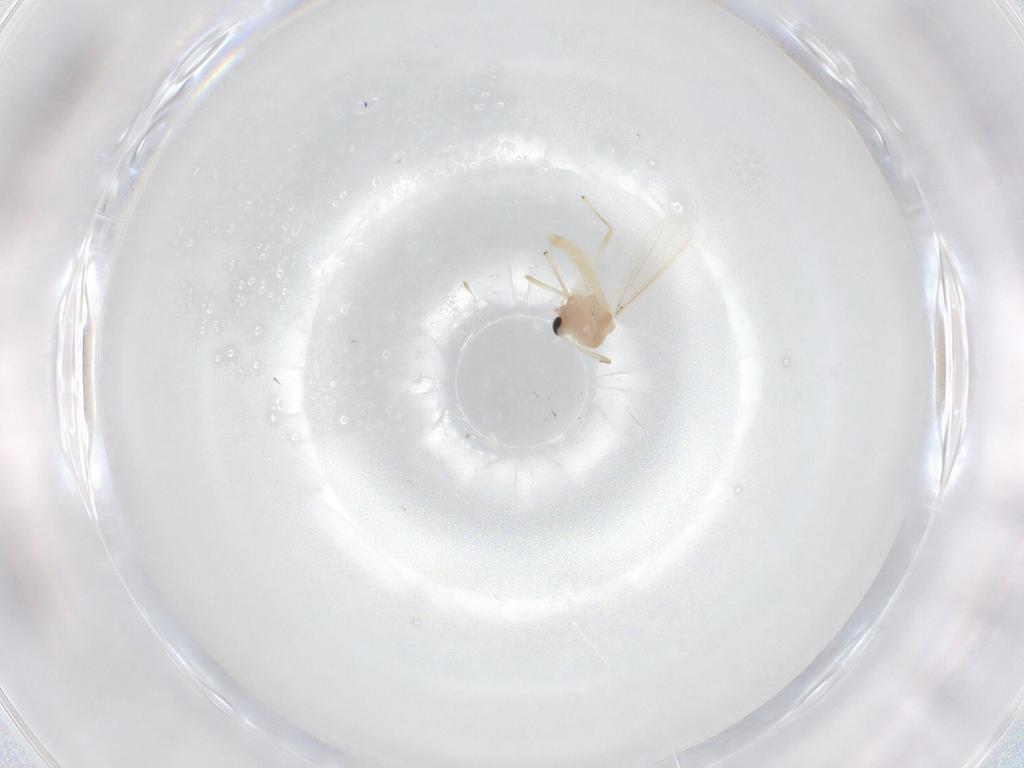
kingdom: Animalia
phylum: Arthropoda
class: Insecta
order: Diptera
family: Chironomidae
